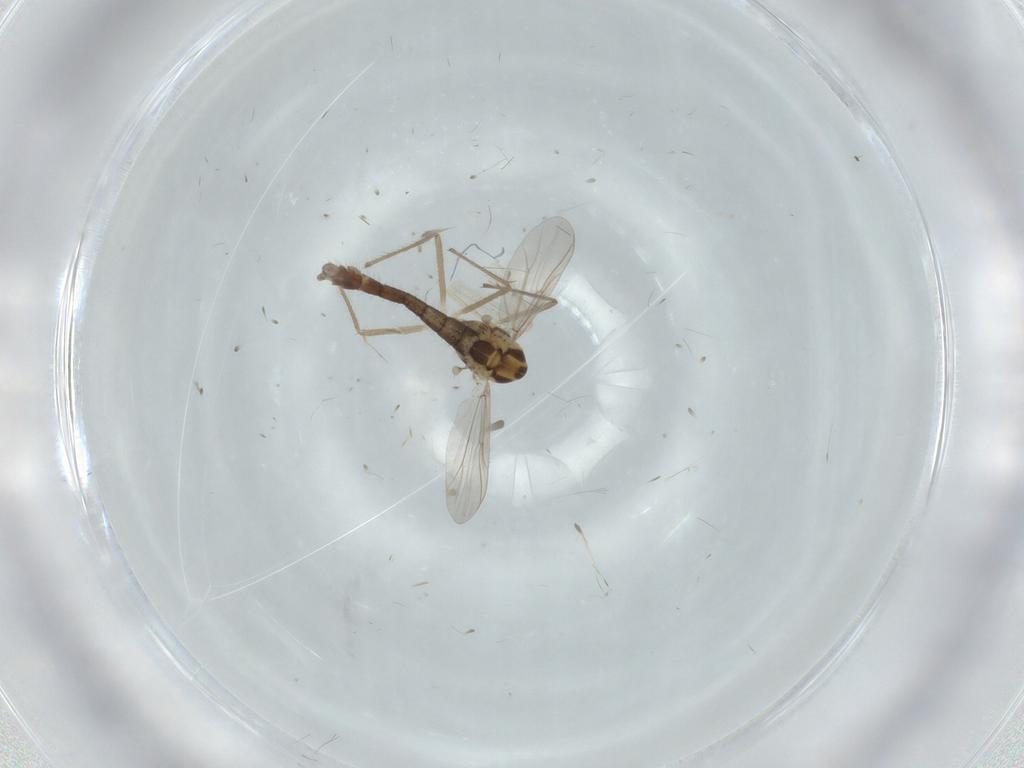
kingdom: Animalia
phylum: Arthropoda
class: Insecta
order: Diptera
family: Chironomidae
